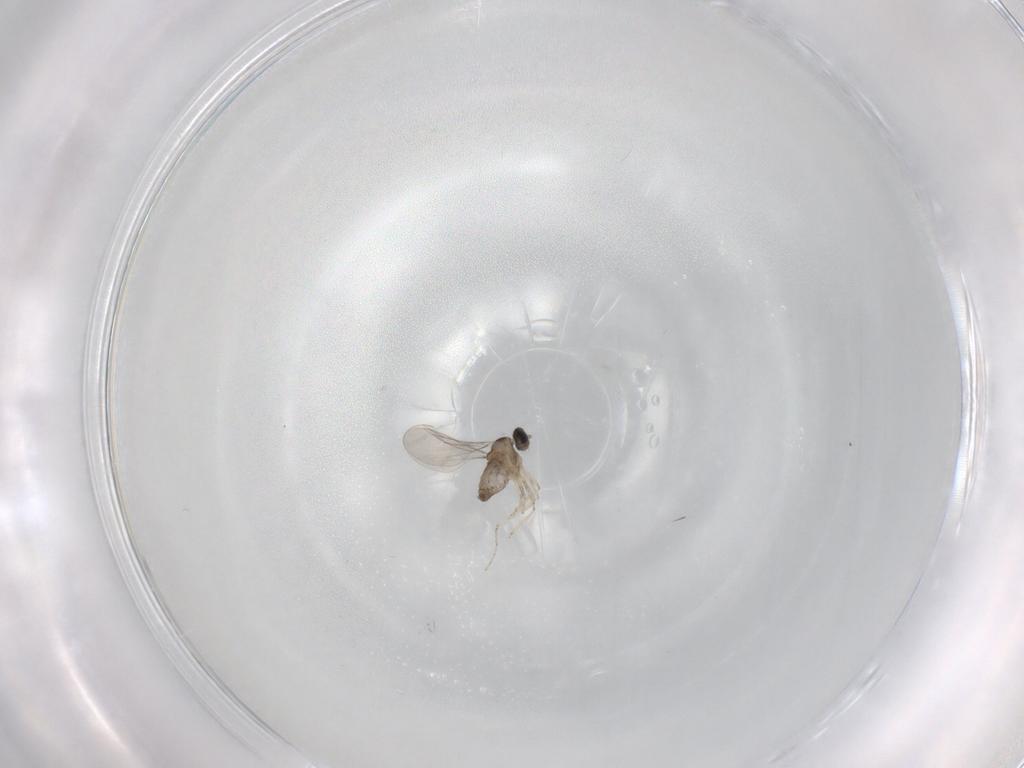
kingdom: Animalia
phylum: Arthropoda
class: Insecta
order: Diptera
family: Cecidomyiidae
